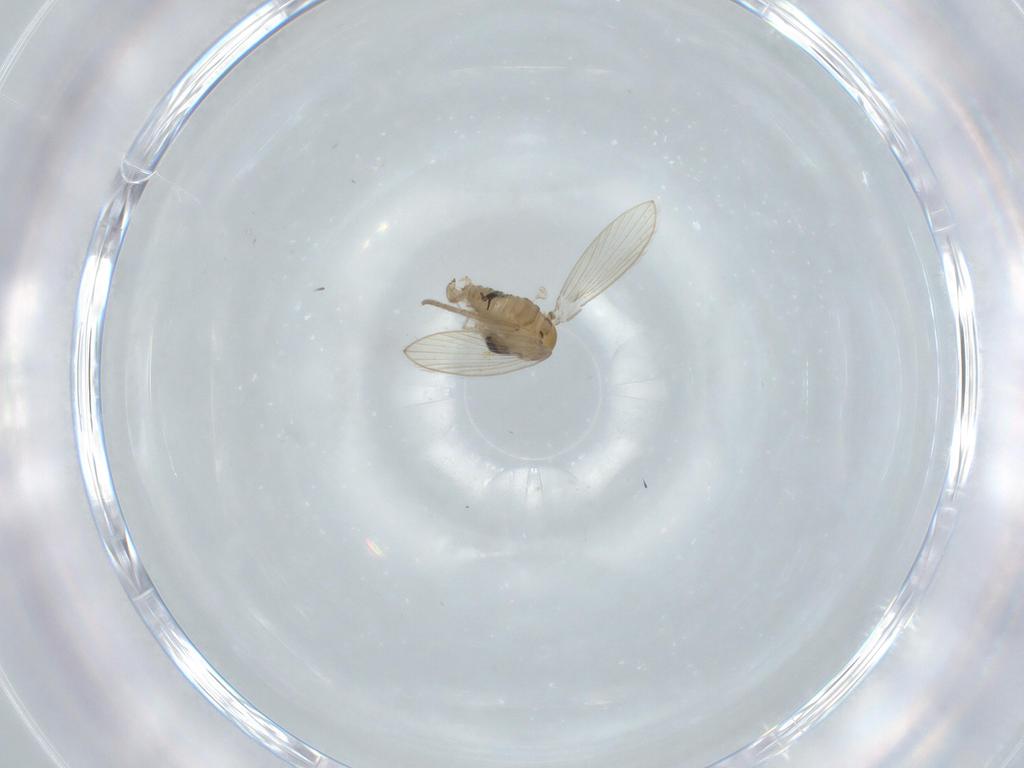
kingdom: Animalia
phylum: Arthropoda
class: Insecta
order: Diptera
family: Psychodidae
